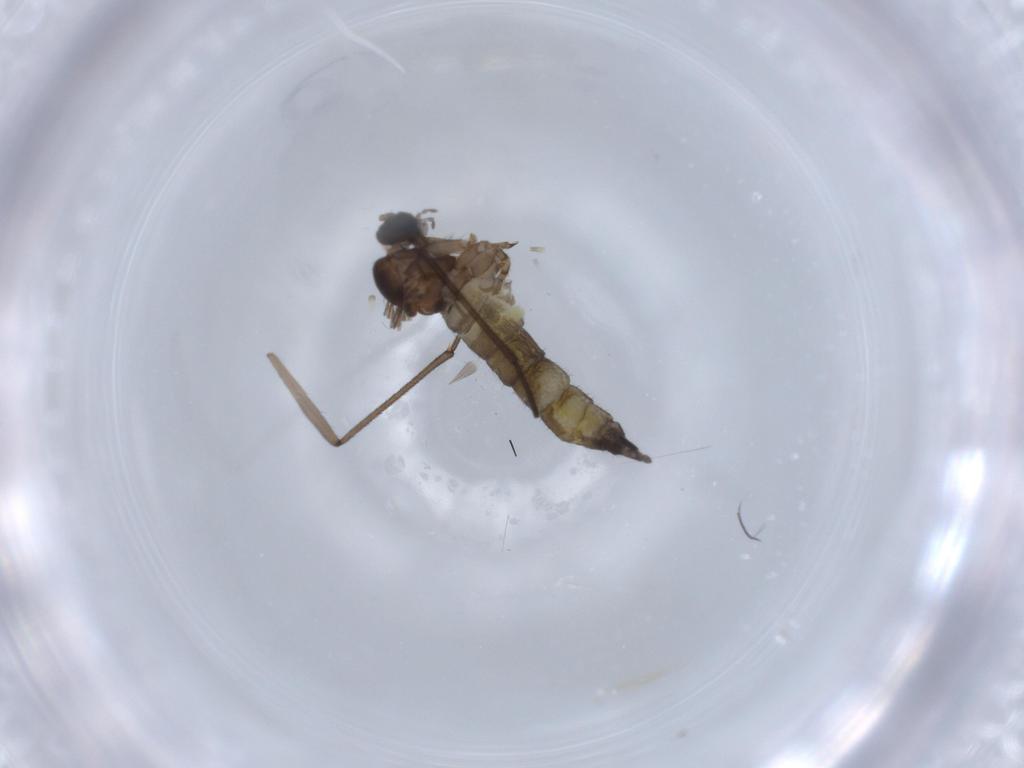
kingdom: Animalia
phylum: Arthropoda
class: Insecta
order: Diptera
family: Sciaridae
